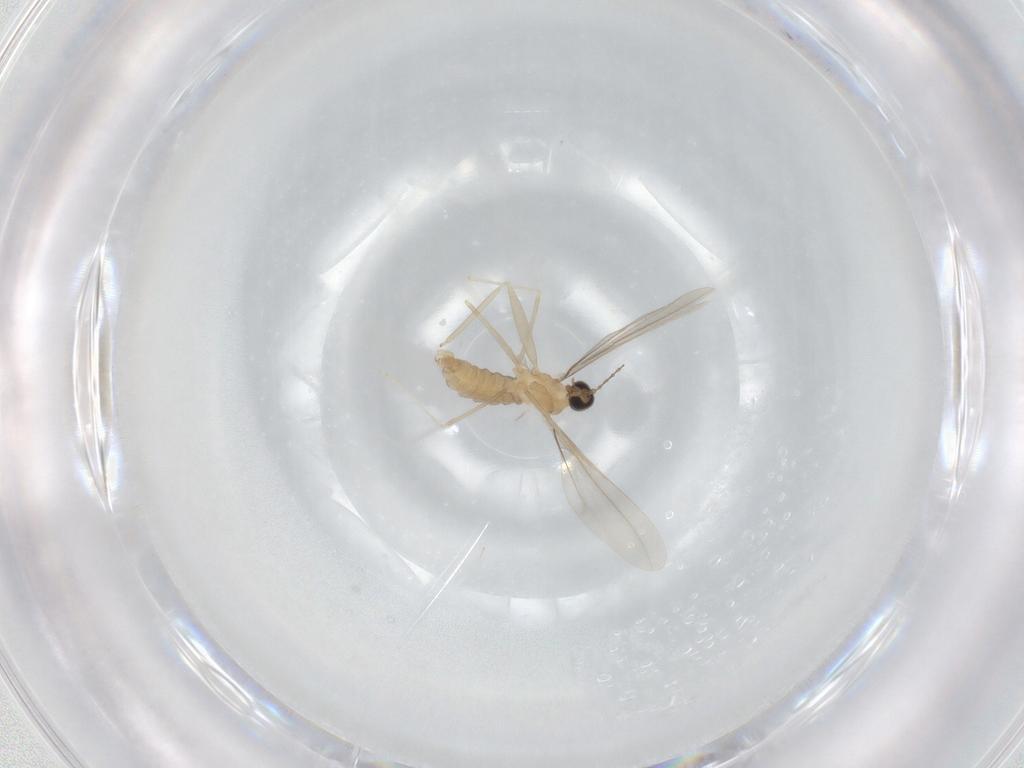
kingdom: Animalia
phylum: Arthropoda
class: Insecta
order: Diptera
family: Cecidomyiidae
